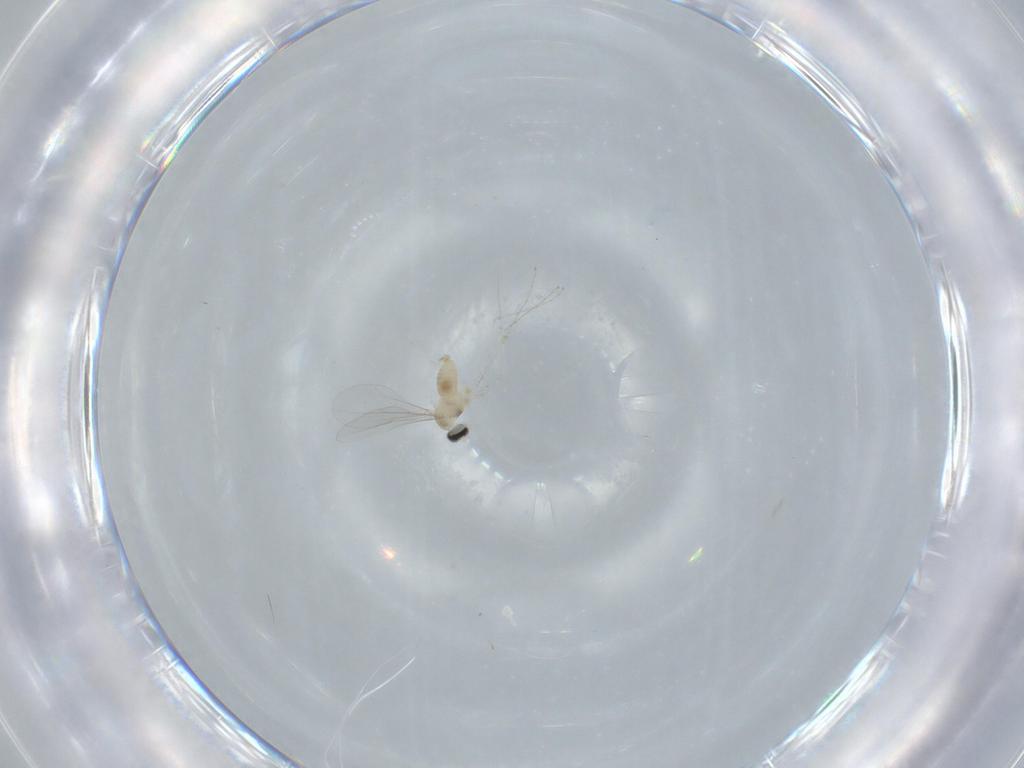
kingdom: Animalia
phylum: Arthropoda
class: Insecta
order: Diptera
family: Cecidomyiidae
